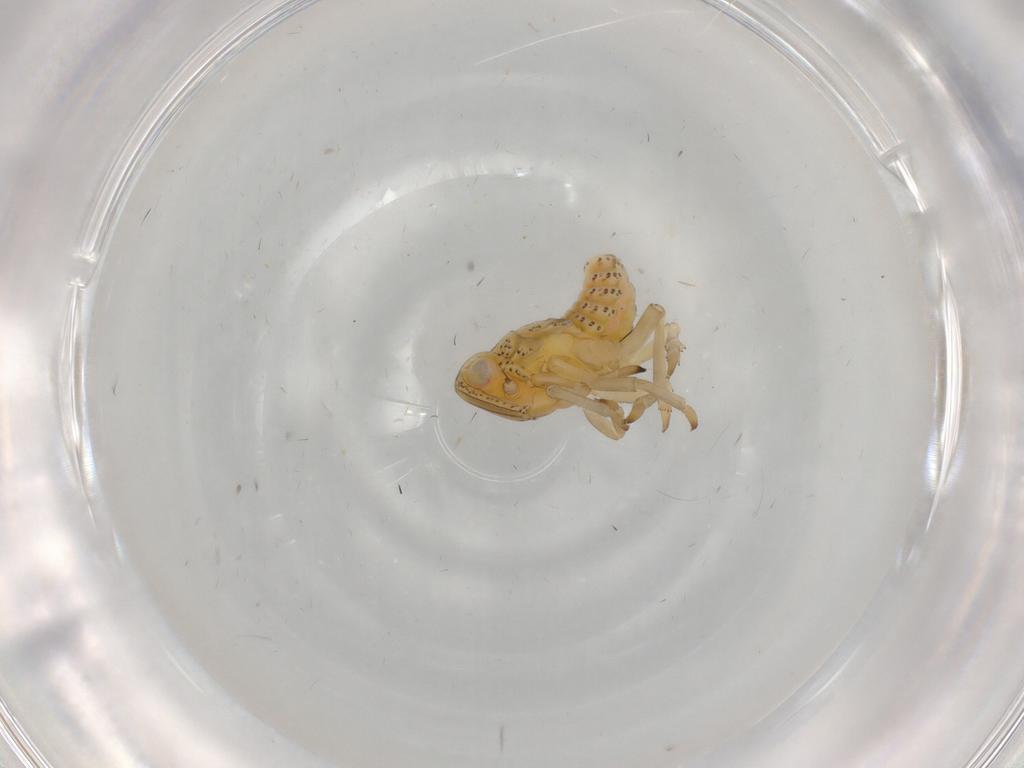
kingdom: Animalia
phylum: Arthropoda
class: Insecta
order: Hemiptera
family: Tropiduchidae
